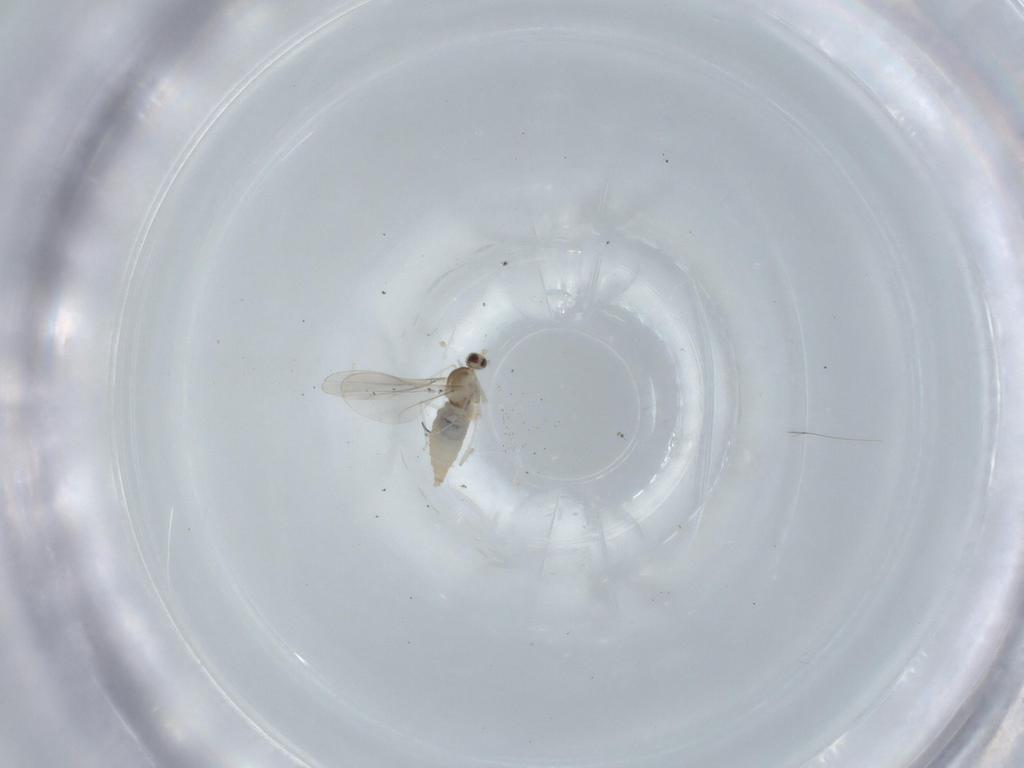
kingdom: Animalia
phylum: Arthropoda
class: Insecta
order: Diptera
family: Cecidomyiidae
